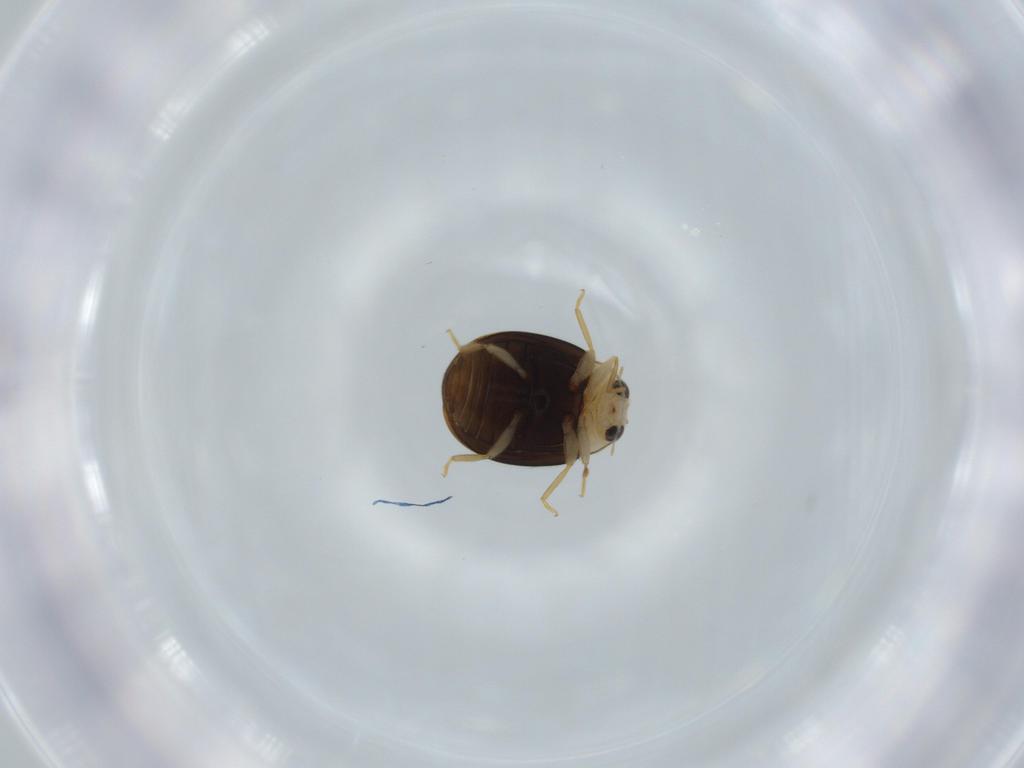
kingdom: Animalia
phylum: Arthropoda
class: Insecta
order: Coleoptera
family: Coccinellidae
